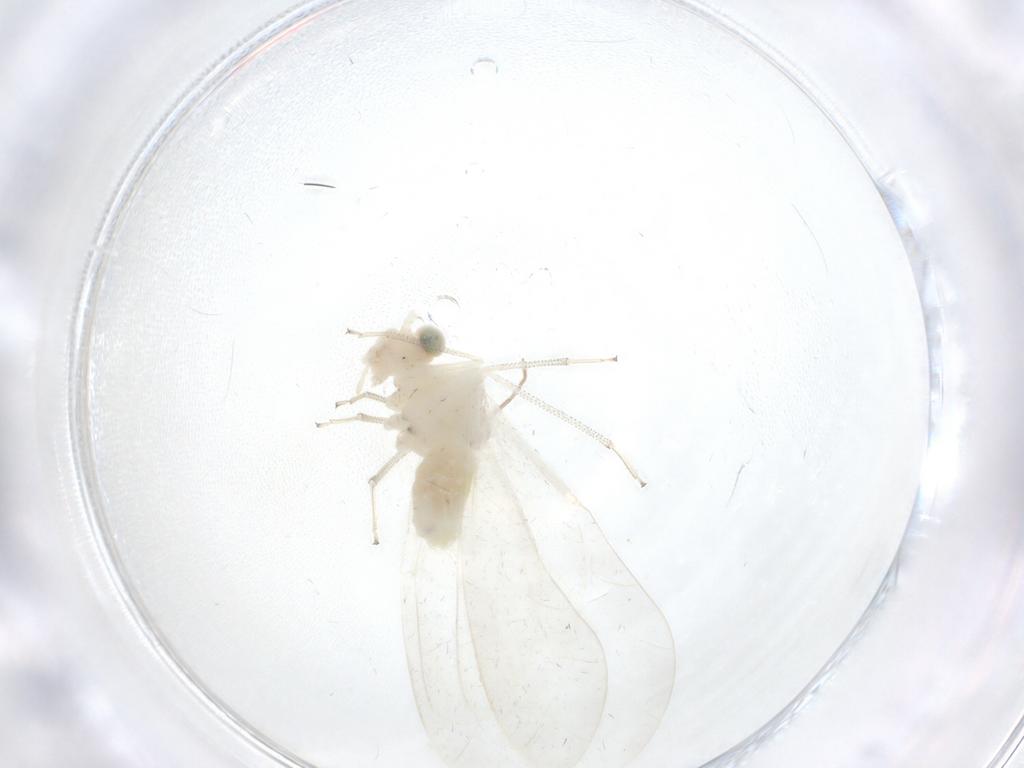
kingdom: Animalia
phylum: Arthropoda
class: Insecta
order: Psocodea
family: Caeciliusidae
